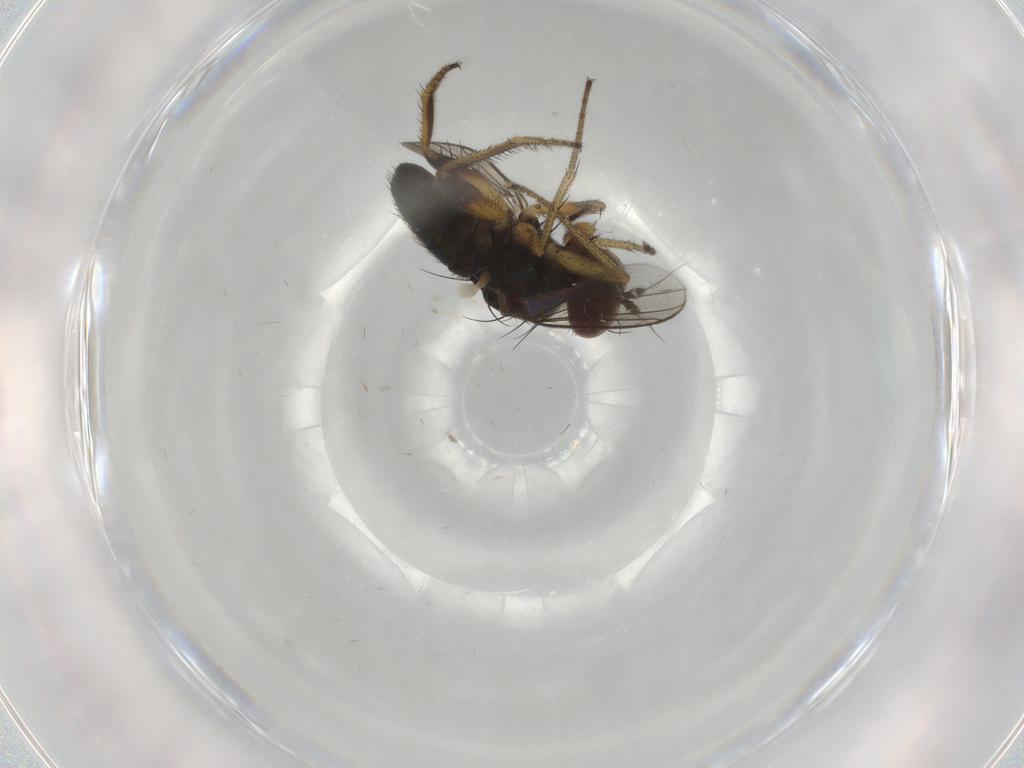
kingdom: Animalia
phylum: Arthropoda
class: Insecta
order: Diptera
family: Dolichopodidae
